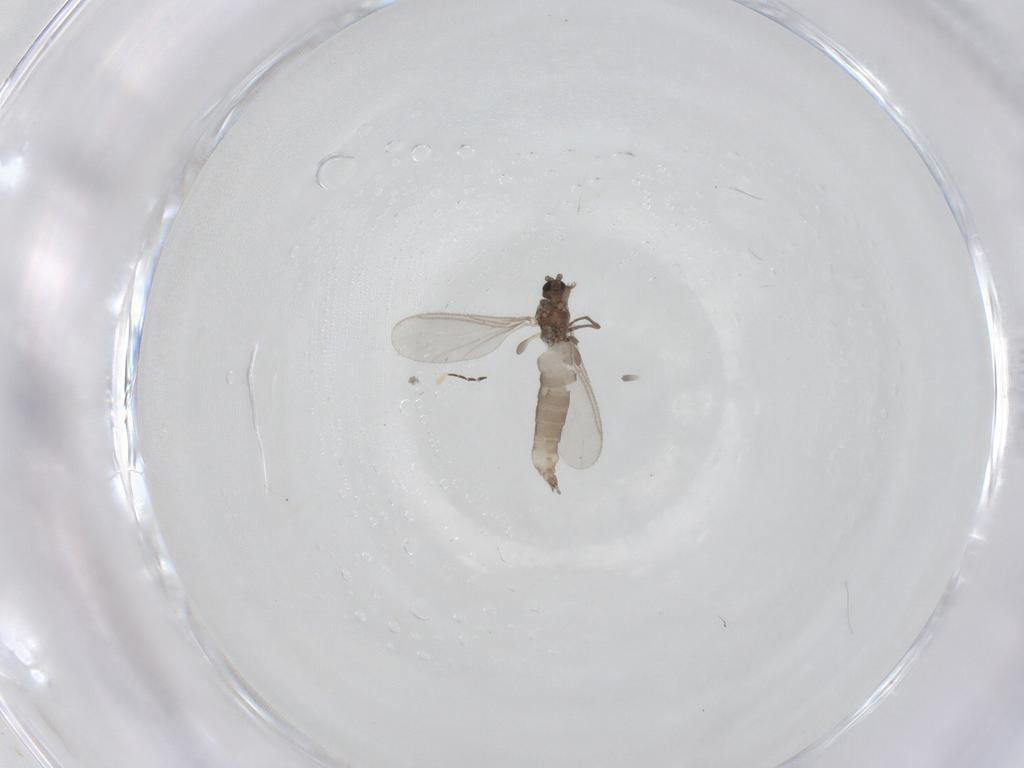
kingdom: Animalia
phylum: Arthropoda
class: Insecta
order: Diptera
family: Sciaridae
